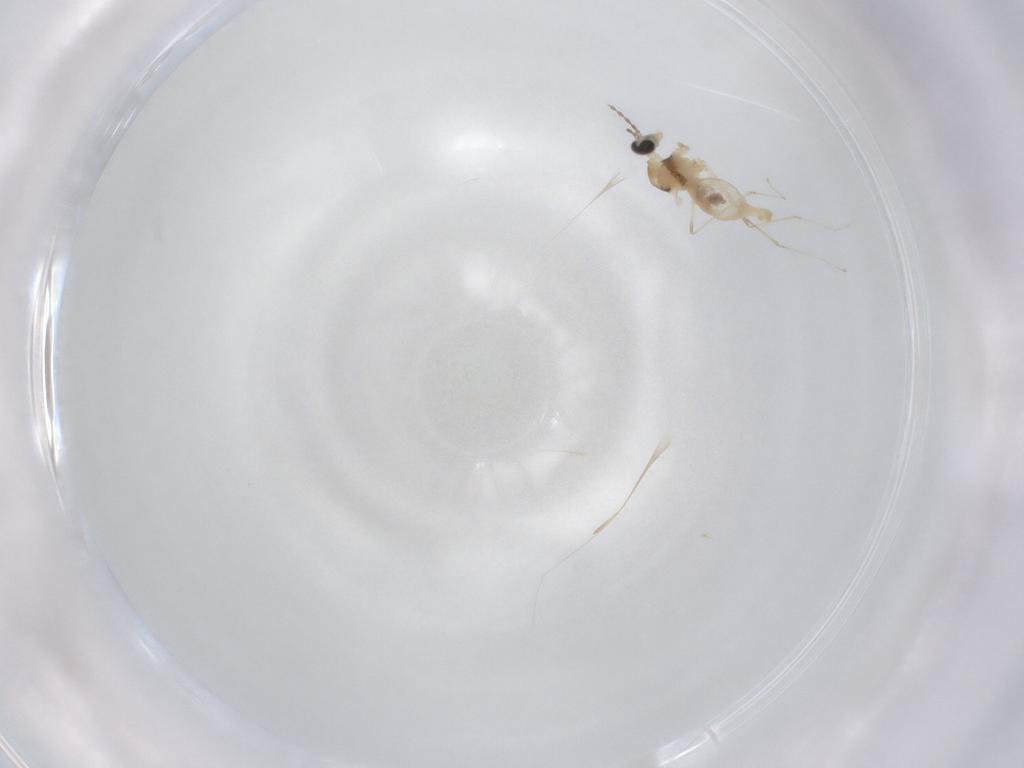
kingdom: Animalia
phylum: Arthropoda
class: Insecta
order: Diptera
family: Cecidomyiidae
